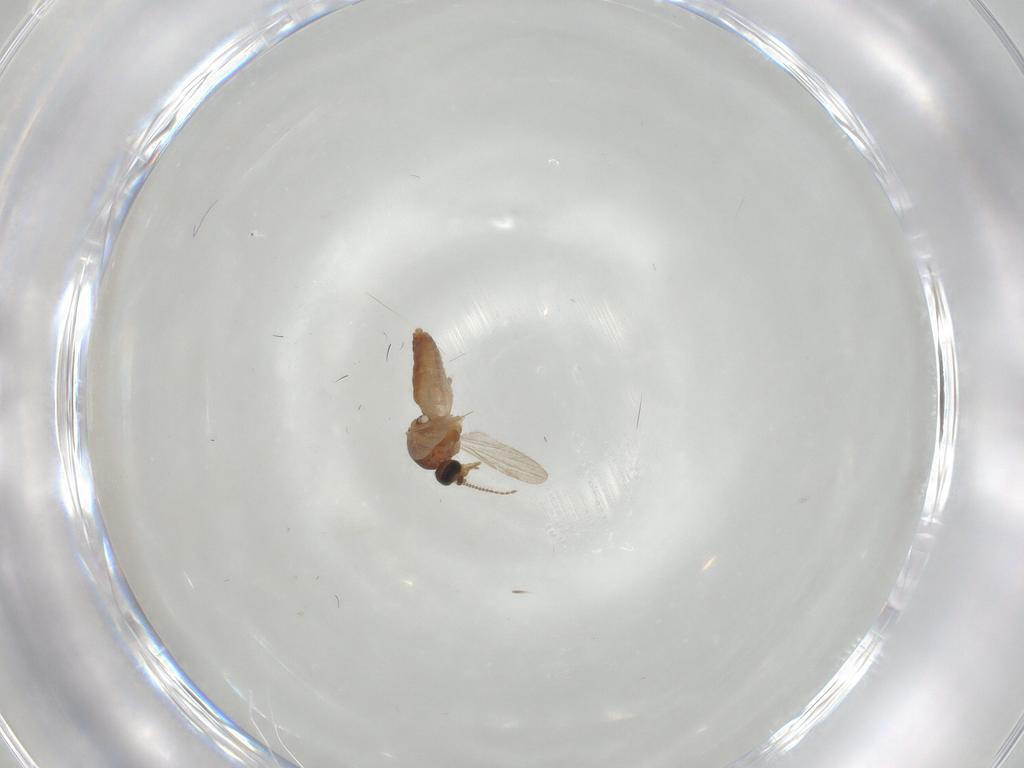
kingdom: Animalia
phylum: Arthropoda
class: Insecta
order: Diptera
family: Ceratopogonidae
